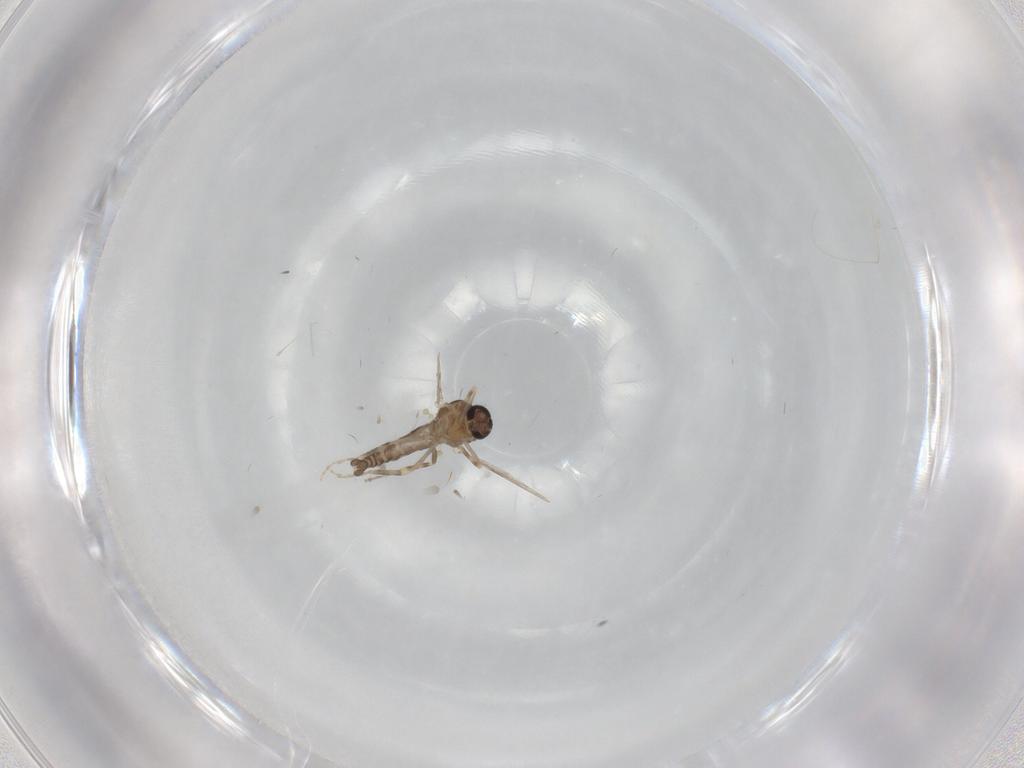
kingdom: Animalia
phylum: Arthropoda
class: Insecta
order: Diptera
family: Ceratopogonidae
